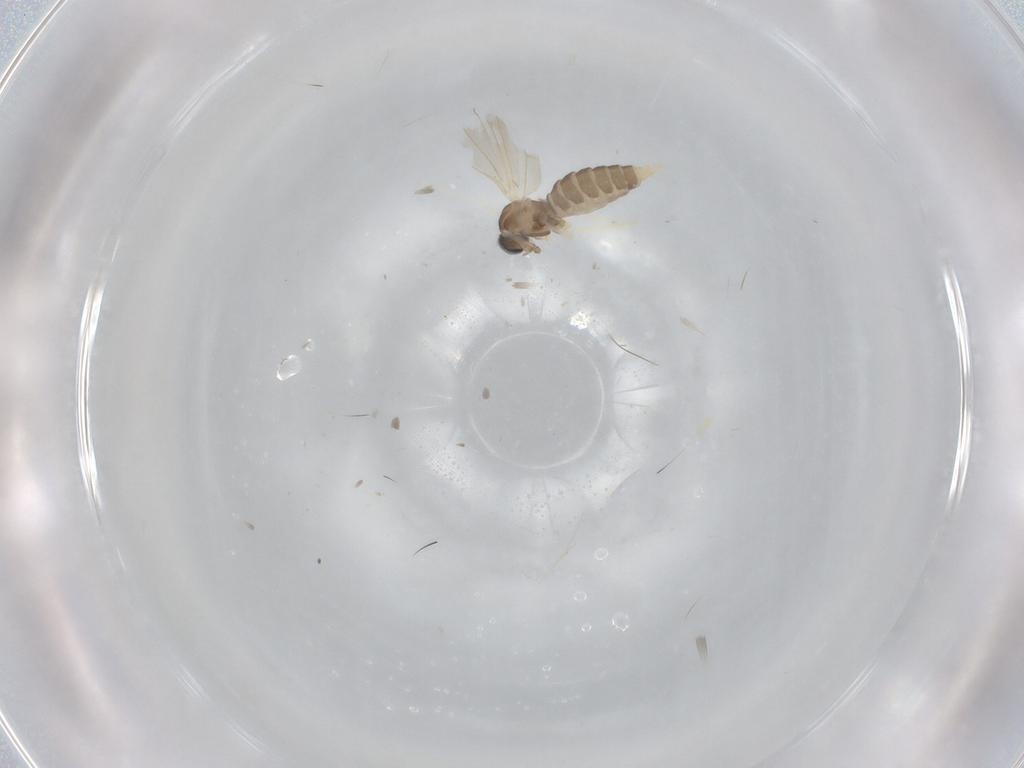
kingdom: Animalia
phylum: Arthropoda
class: Insecta
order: Diptera
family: Cecidomyiidae
